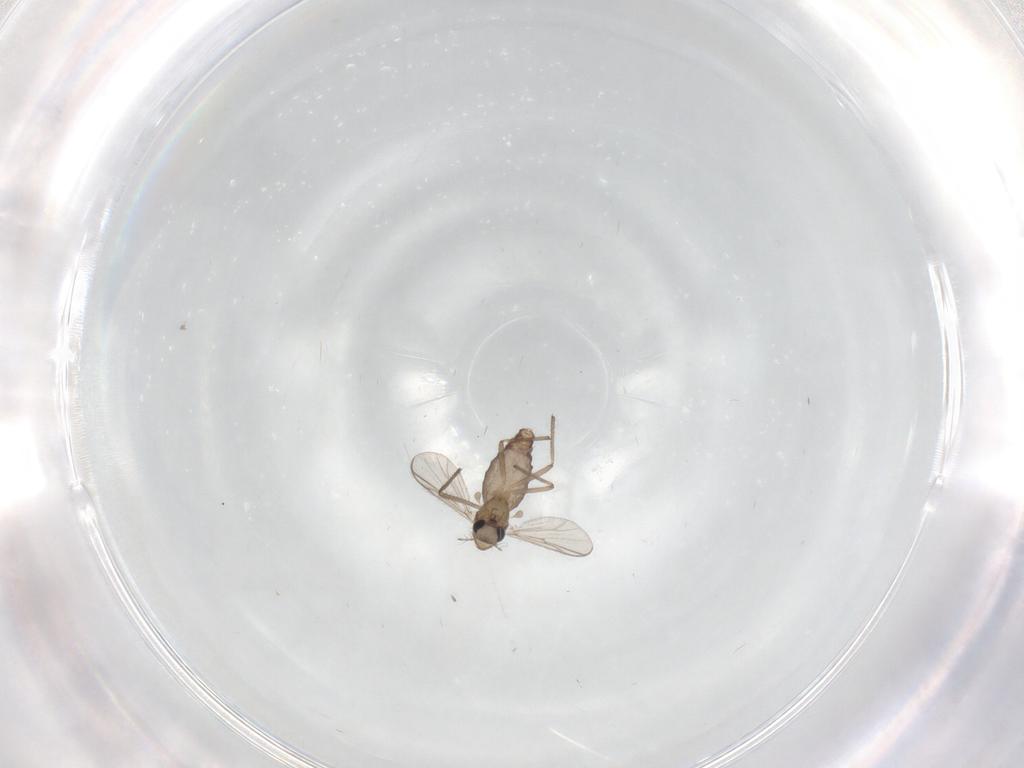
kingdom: Animalia
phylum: Arthropoda
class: Insecta
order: Diptera
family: Chironomidae
